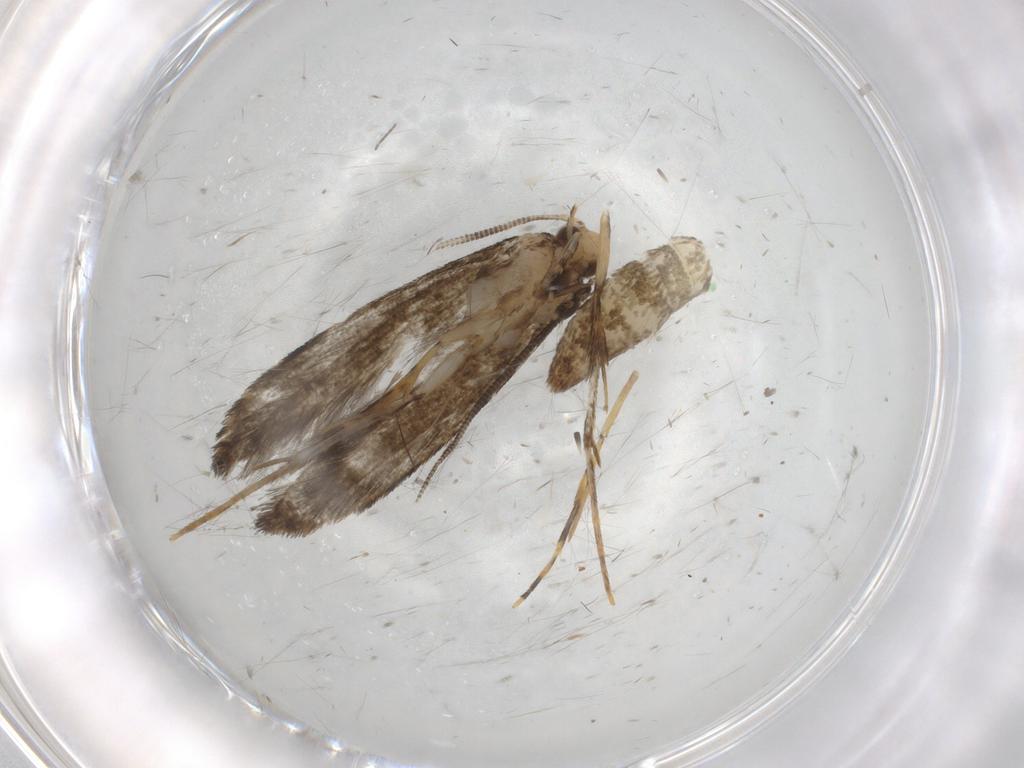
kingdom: Animalia
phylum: Arthropoda
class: Insecta
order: Lepidoptera
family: Tineidae
